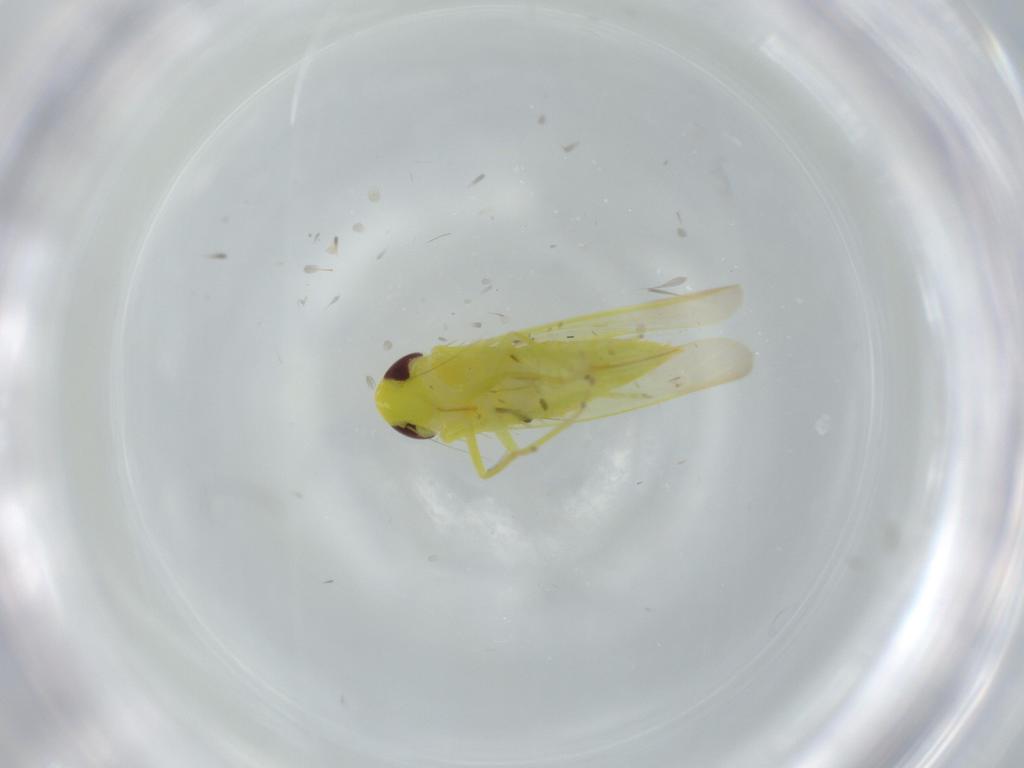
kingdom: Animalia
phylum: Arthropoda
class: Insecta
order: Hemiptera
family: Cicadellidae
